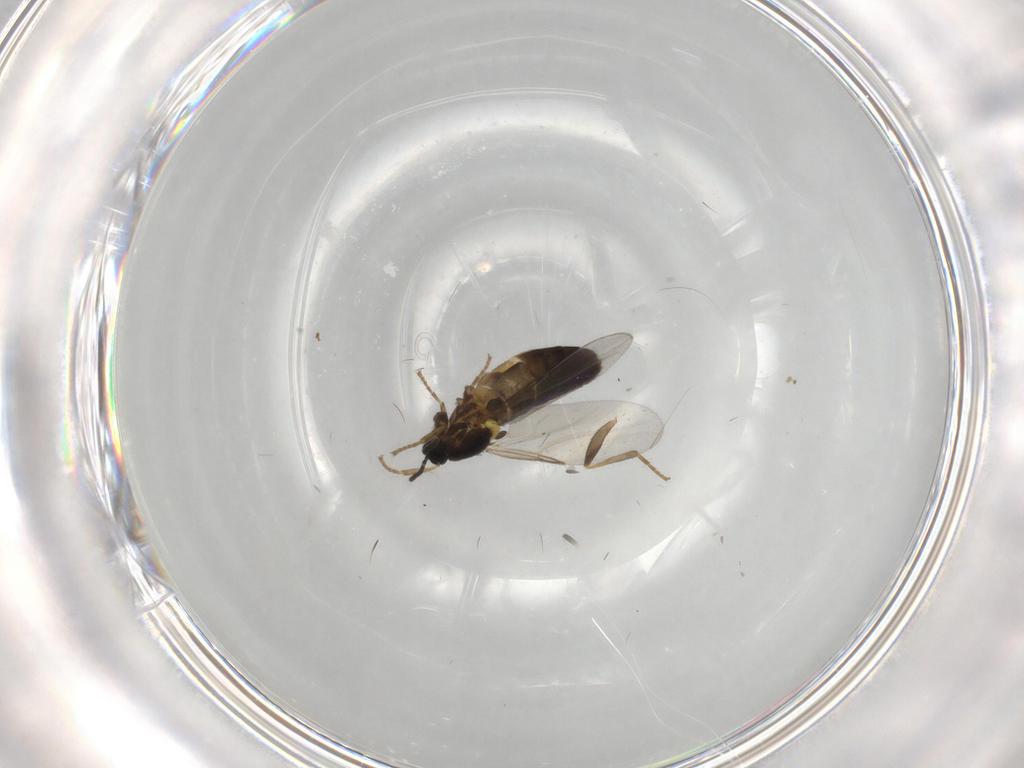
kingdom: Animalia
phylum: Arthropoda
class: Insecta
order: Diptera
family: Scatopsidae
